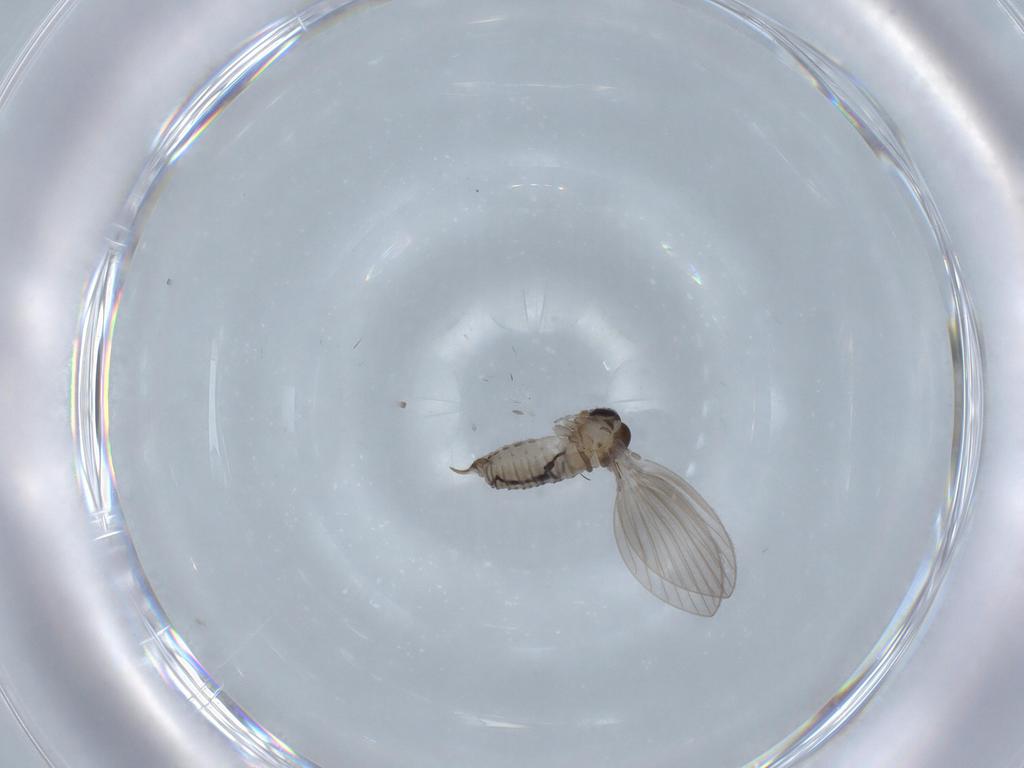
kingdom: Animalia
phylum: Arthropoda
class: Insecta
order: Diptera
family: Psychodidae
